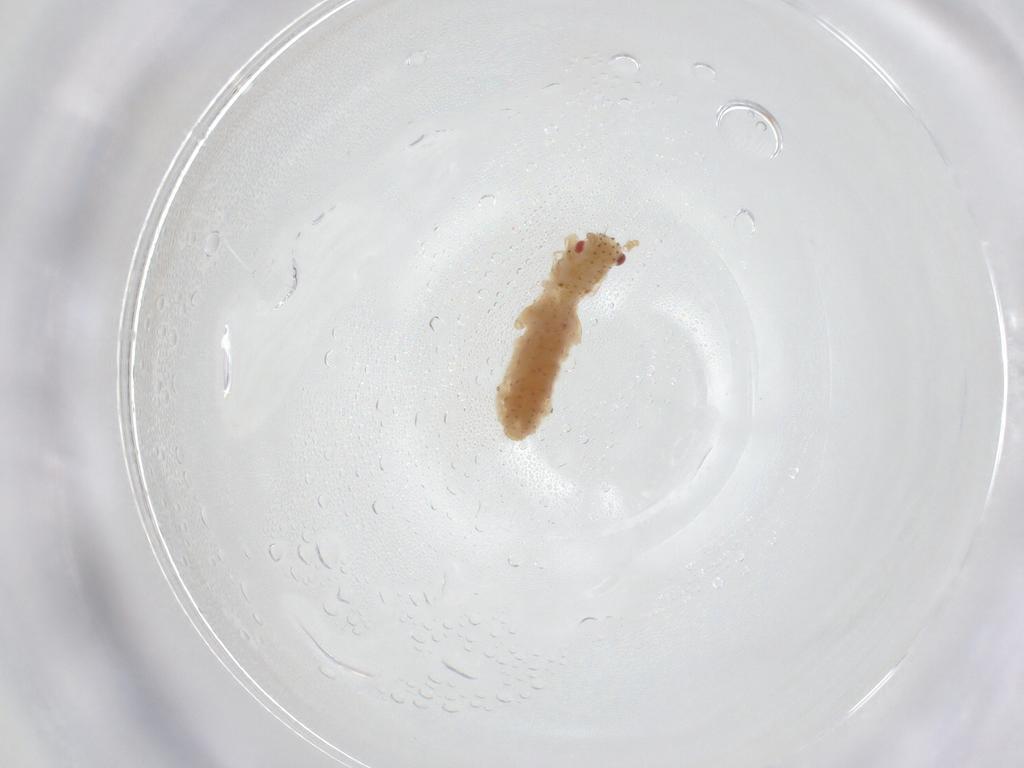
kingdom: Animalia
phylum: Arthropoda
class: Insecta
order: Hemiptera
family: Aphididae
